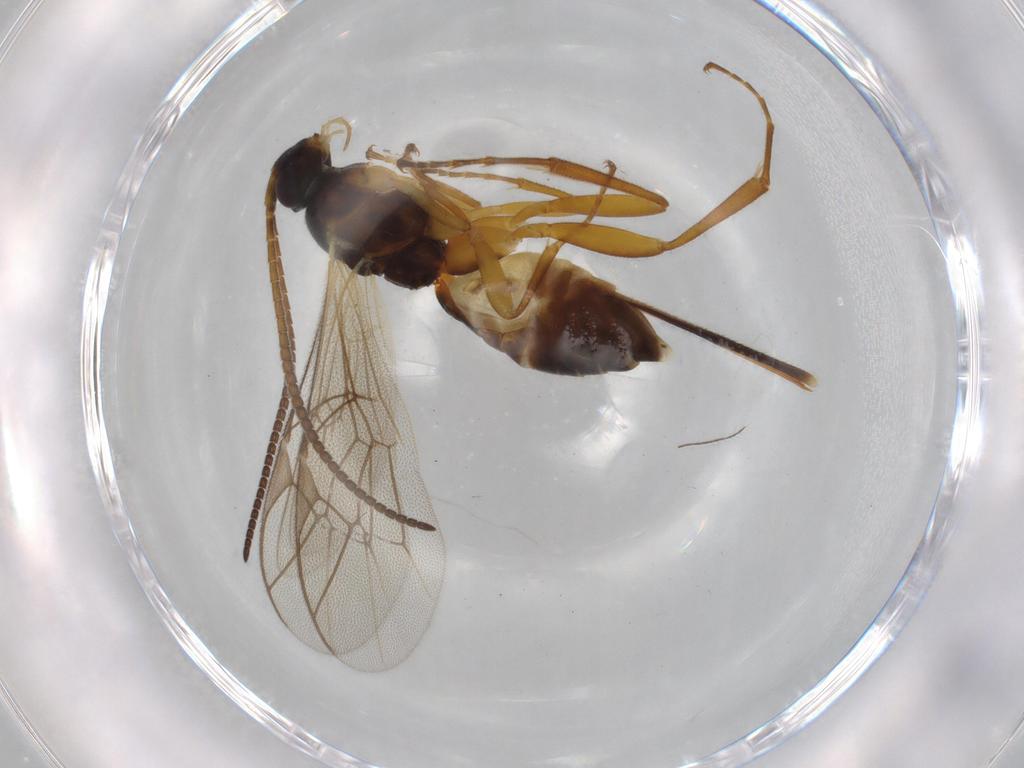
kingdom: Animalia
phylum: Arthropoda
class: Insecta
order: Hymenoptera
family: Ichneumonidae
